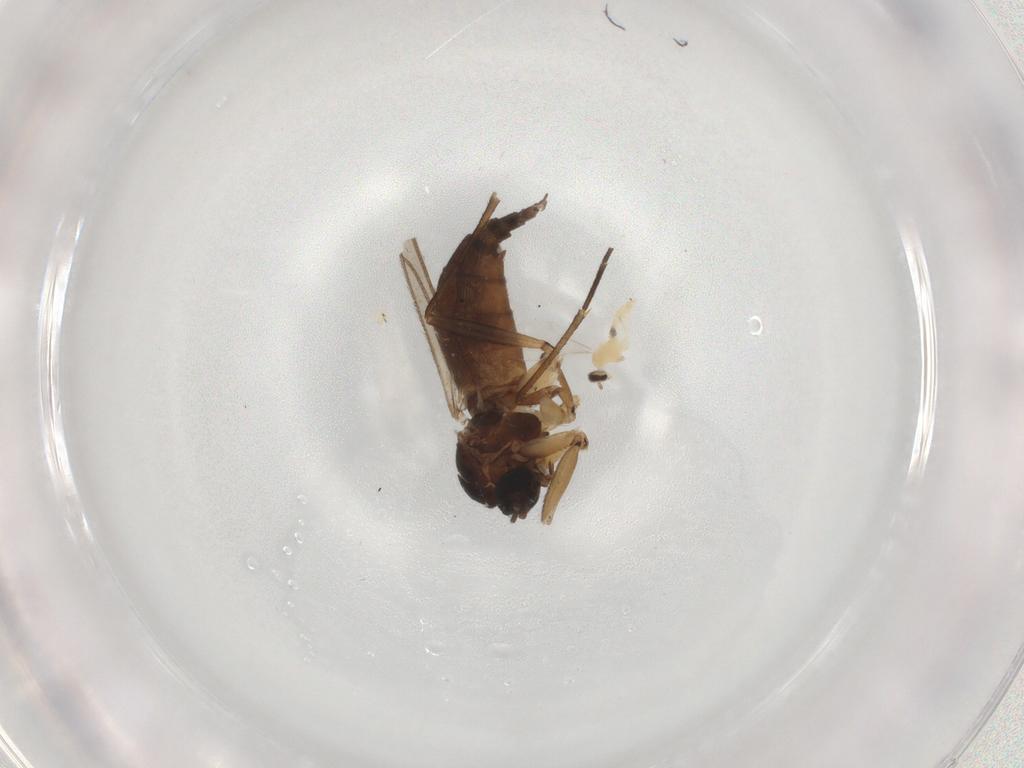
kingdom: Animalia
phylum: Arthropoda
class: Insecta
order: Diptera
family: Sciaridae
